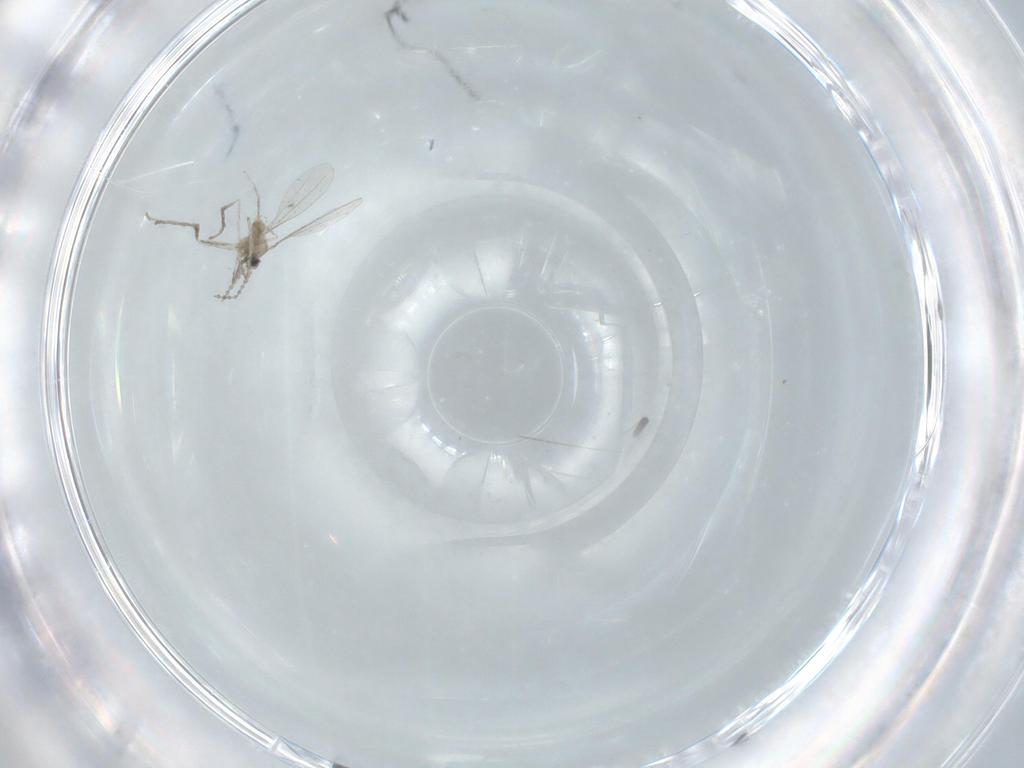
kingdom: Animalia
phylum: Arthropoda
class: Insecta
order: Diptera
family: Cecidomyiidae
